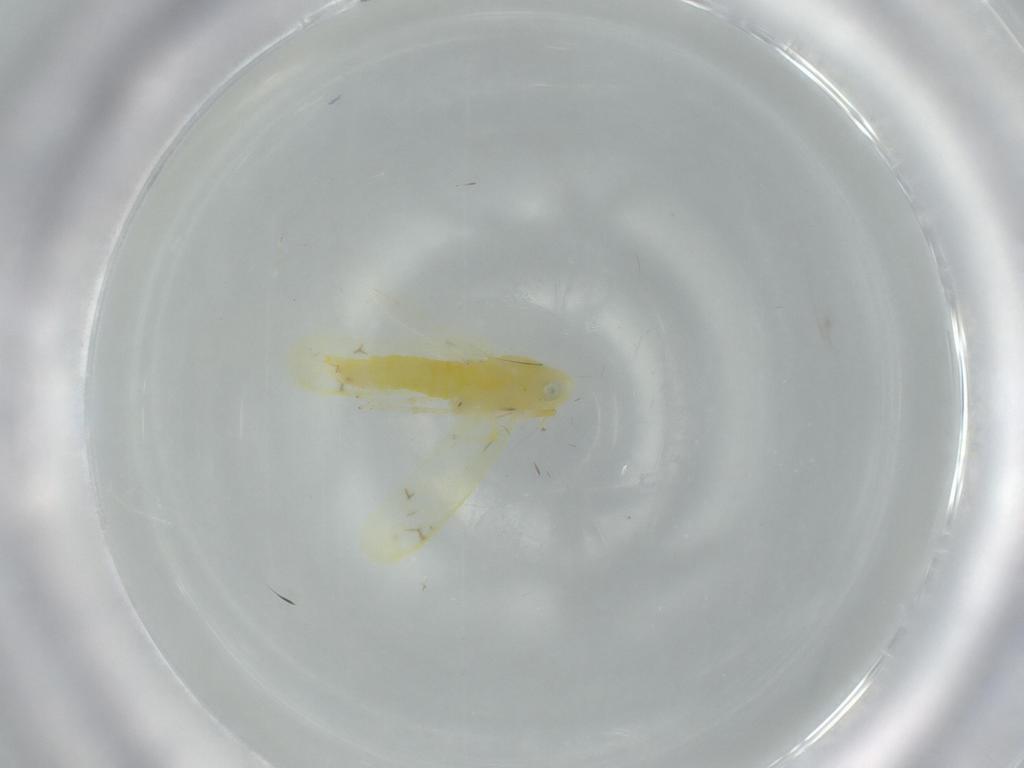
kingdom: Animalia
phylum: Arthropoda
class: Insecta
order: Hemiptera
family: Cicadellidae
